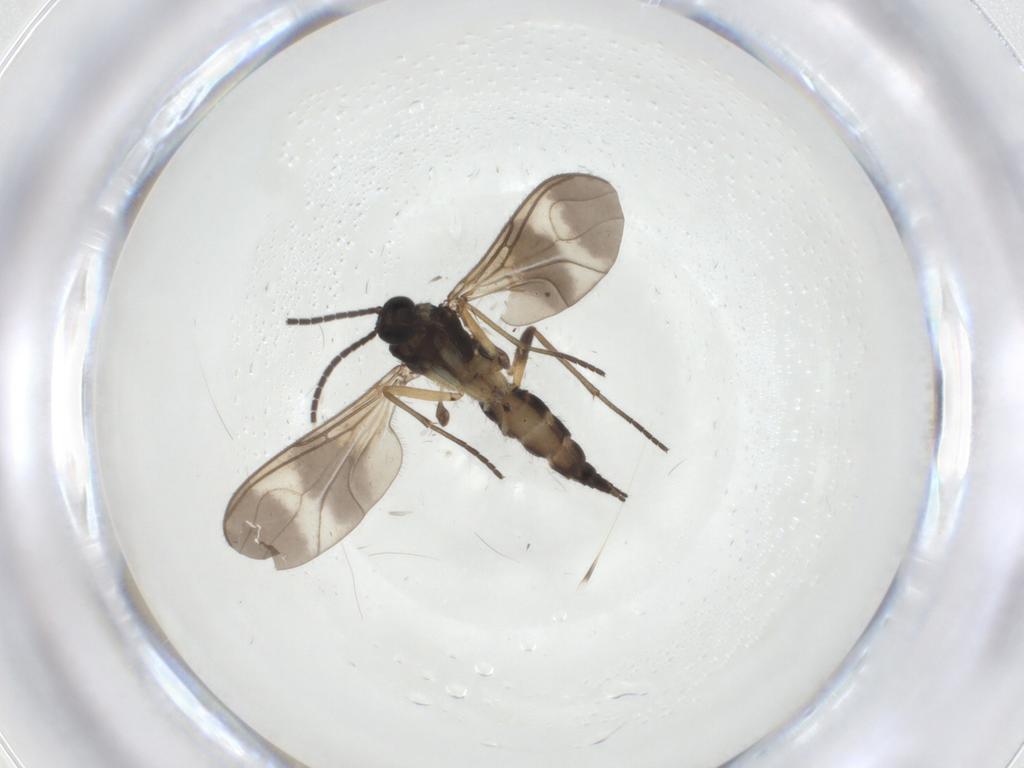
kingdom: Animalia
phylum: Arthropoda
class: Insecta
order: Diptera
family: Sciaridae
